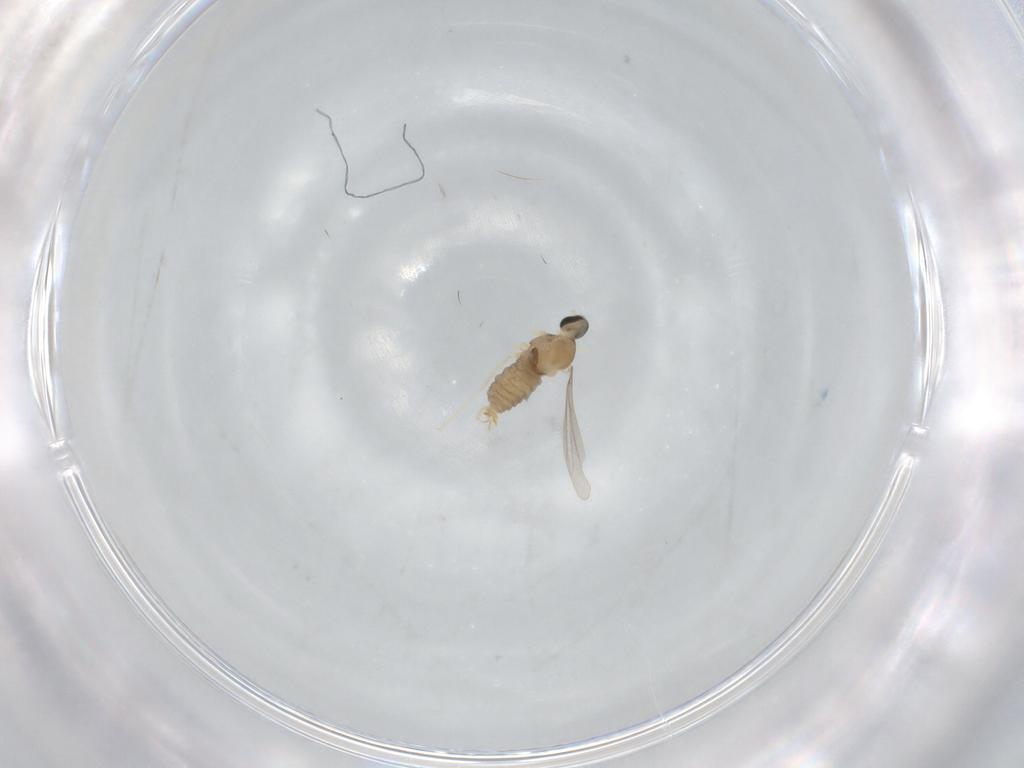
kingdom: Animalia
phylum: Arthropoda
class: Insecta
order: Diptera
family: Cecidomyiidae
